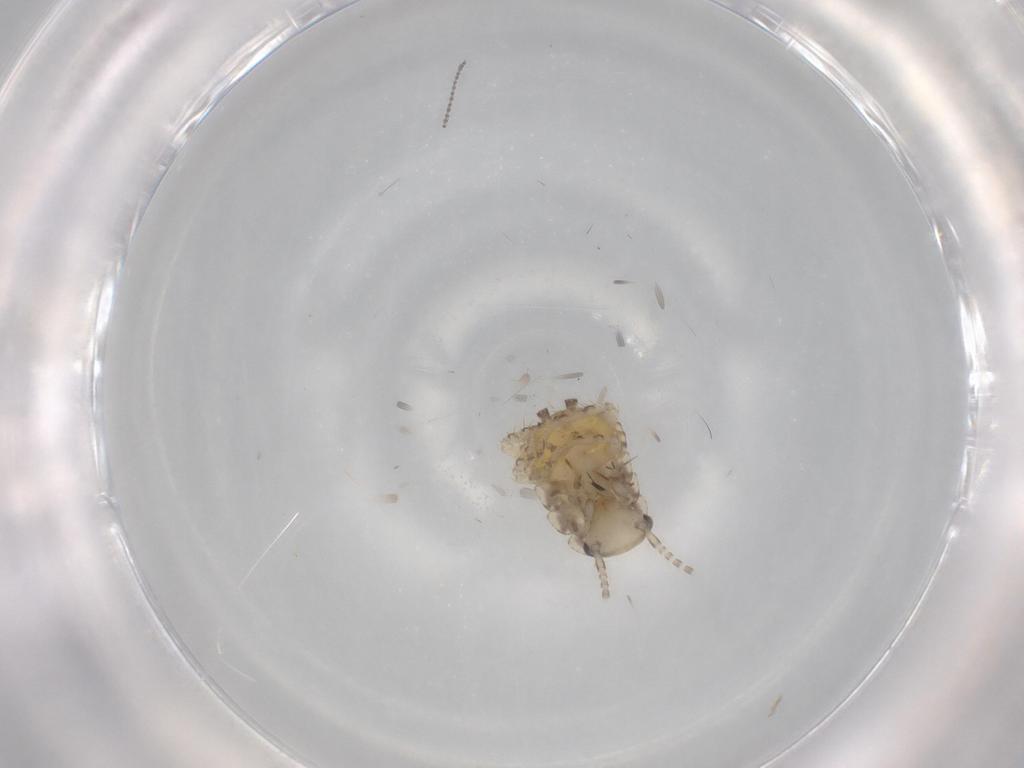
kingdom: Animalia
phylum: Arthropoda
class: Insecta
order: Blattodea
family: Ectobiidae
